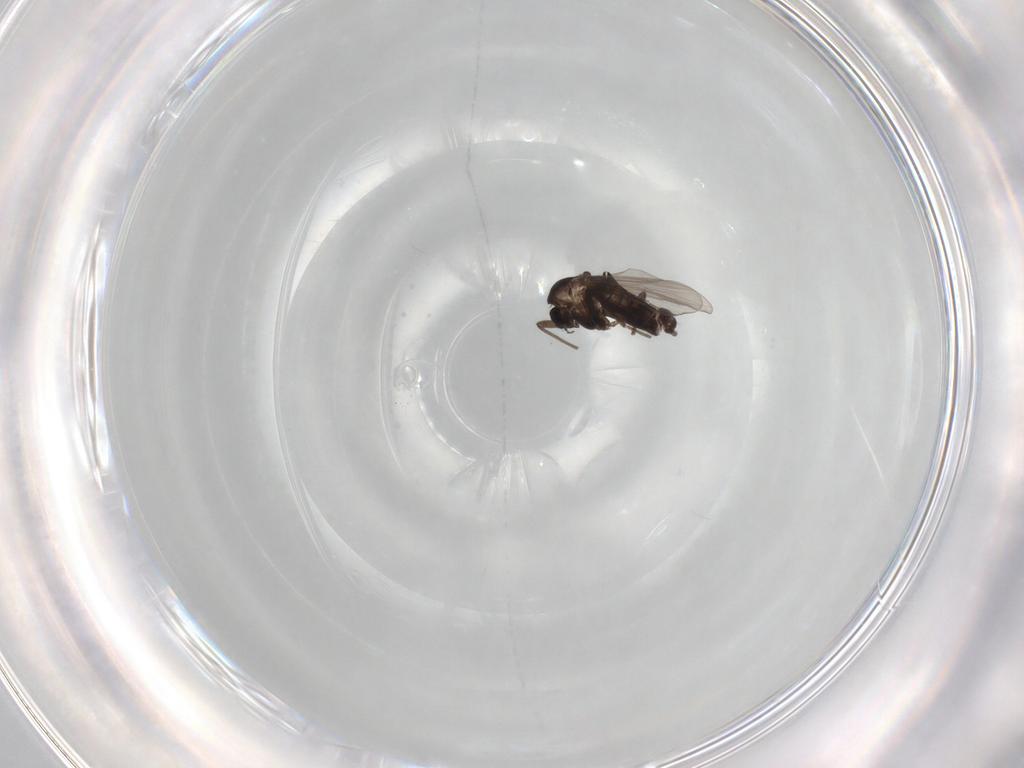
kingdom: Animalia
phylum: Arthropoda
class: Insecta
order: Diptera
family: Chironomidae
